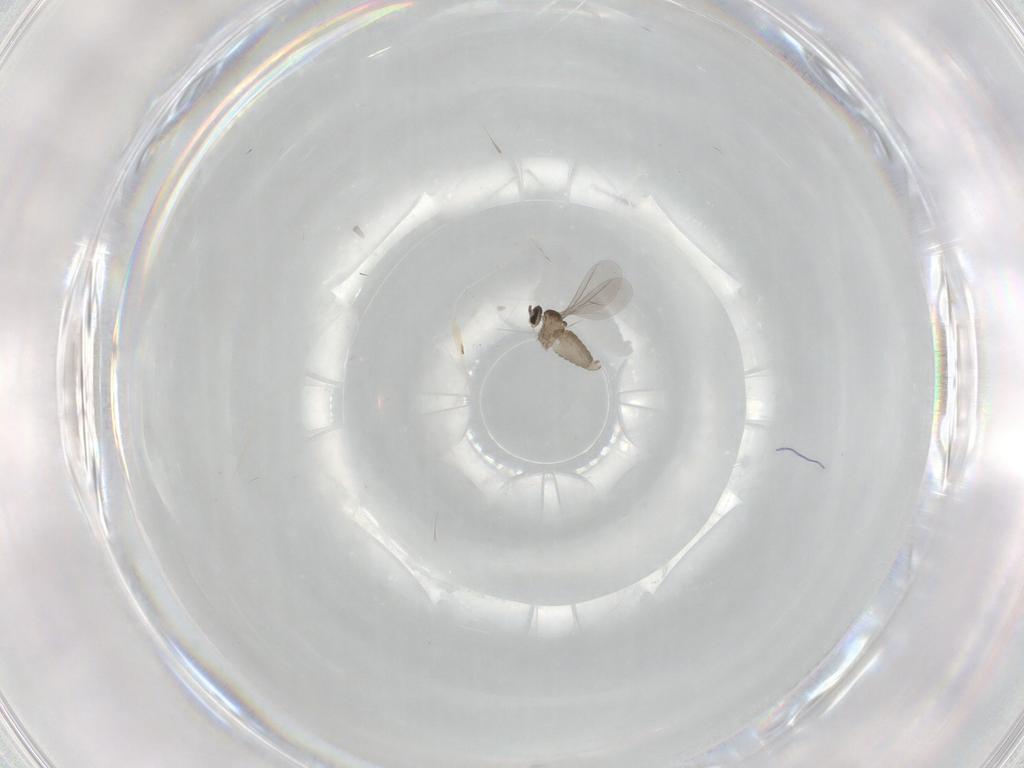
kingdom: Animalia
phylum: Arthropoda
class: Insecta
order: Diptera
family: Cecidomyiidae
